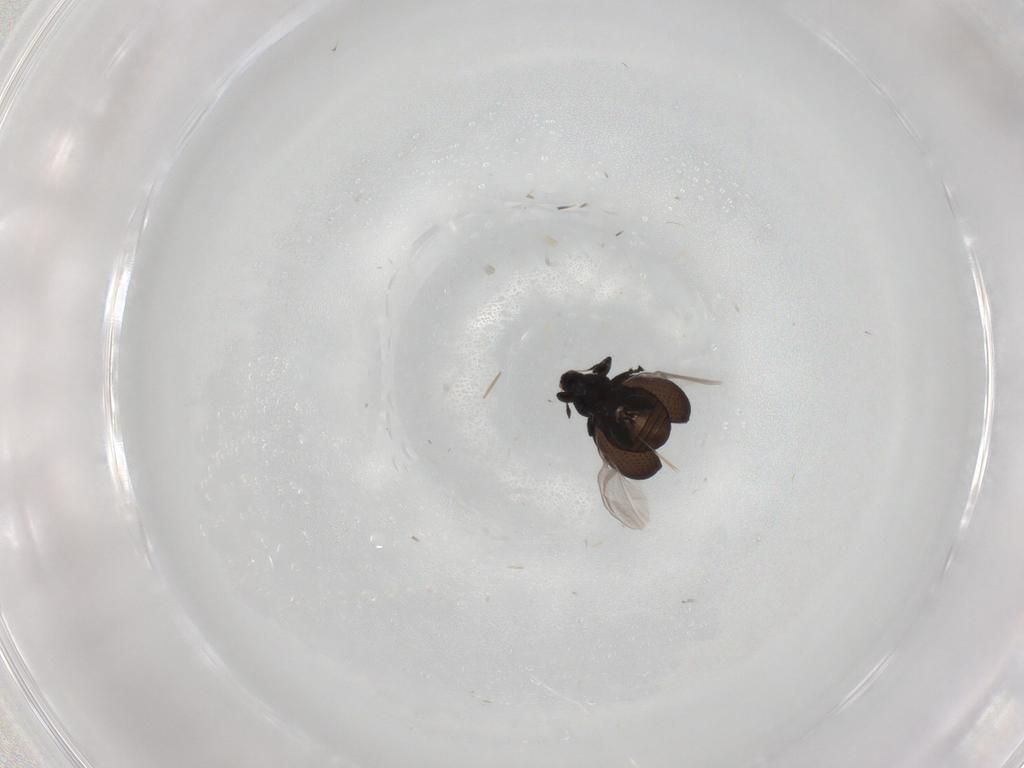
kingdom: Animalia
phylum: Arthropoda
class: Insecta
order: Coleoptera
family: Curculionidae
